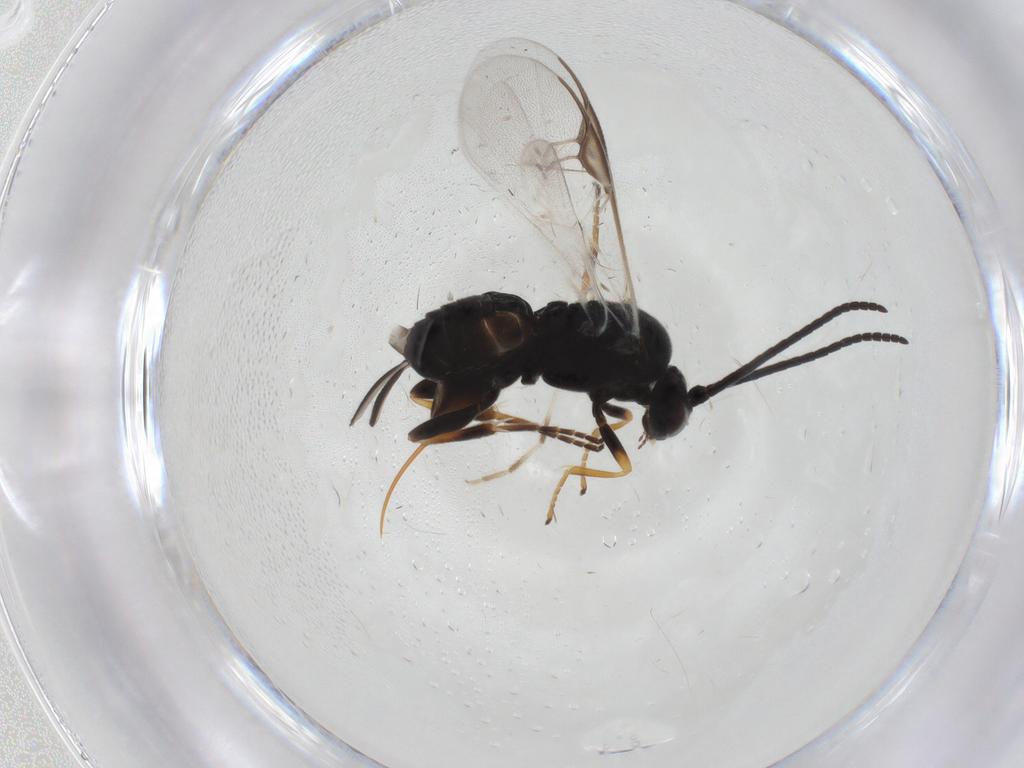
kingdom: Animalia
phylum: Arthropoda
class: Insecta
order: Hymenoptera
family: Braconidae
